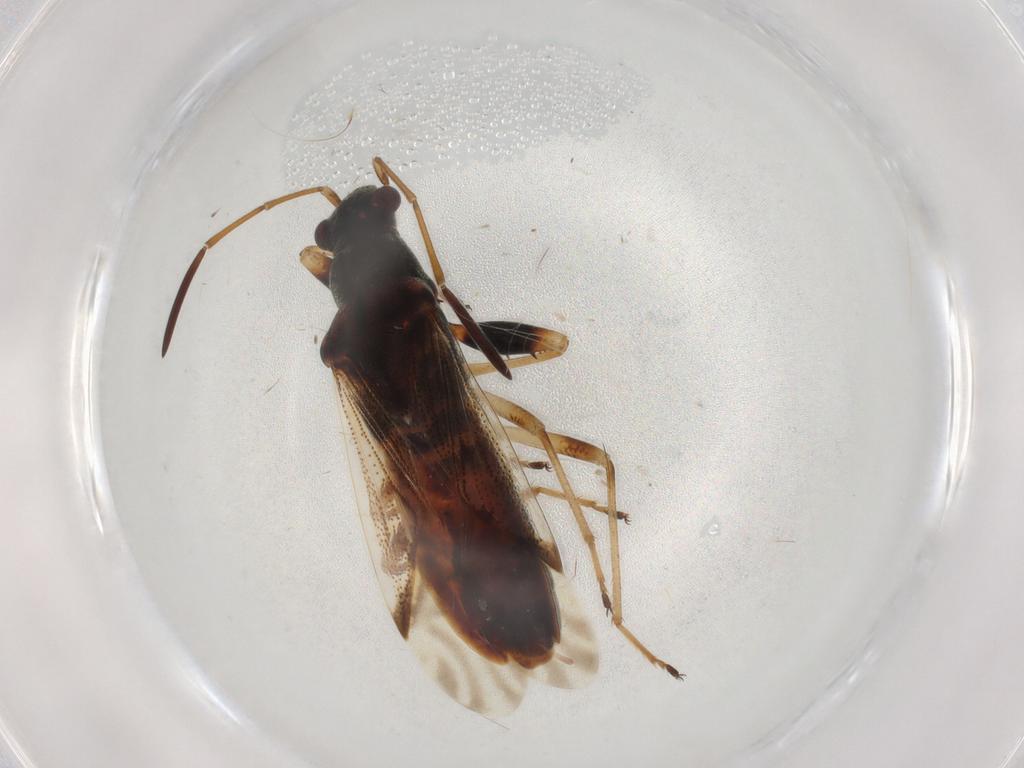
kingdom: Animalia
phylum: Arthropoda
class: Insecta
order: Hemiptera
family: Rhyparochromidae
